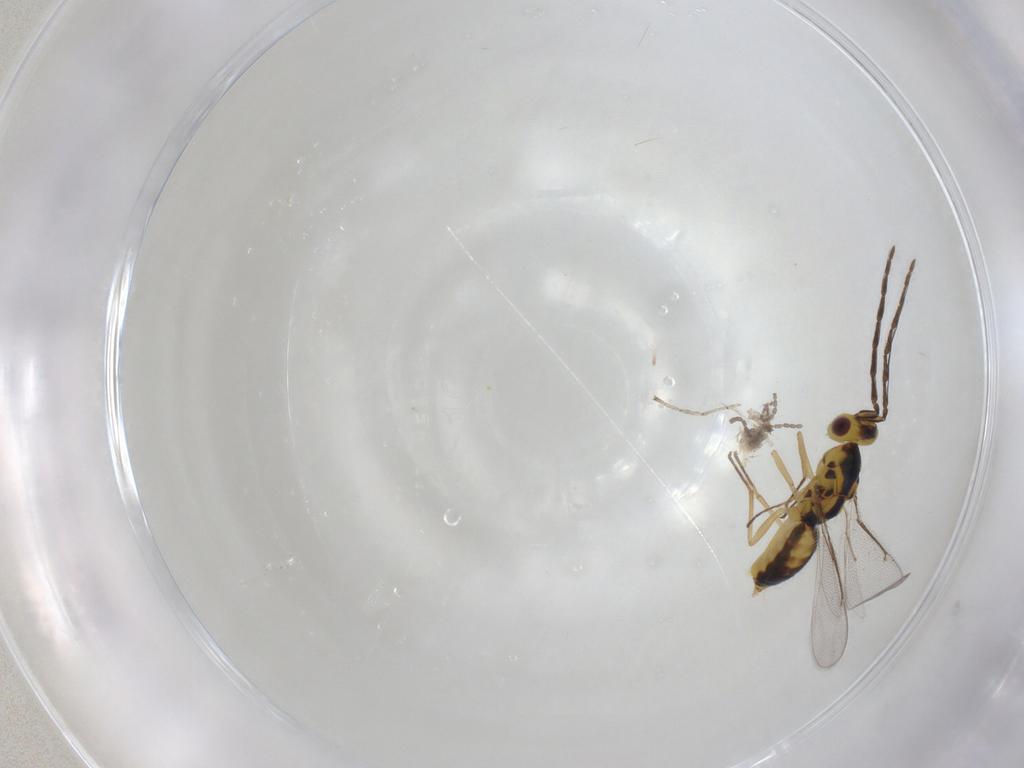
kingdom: Animalia
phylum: Arthropoda
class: Insecta
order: Hymenoptera
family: Eulophidae
